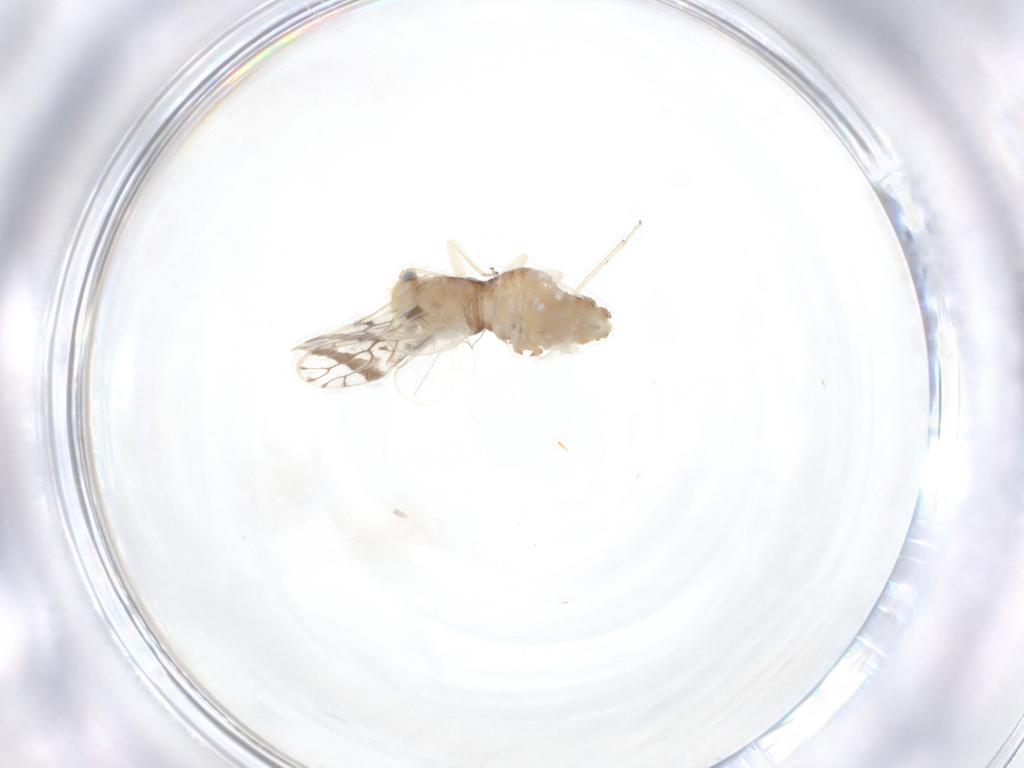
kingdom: Animalia
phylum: Arthropoda
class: Insecta
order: Psocodea
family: Pseudocaeciliidae
